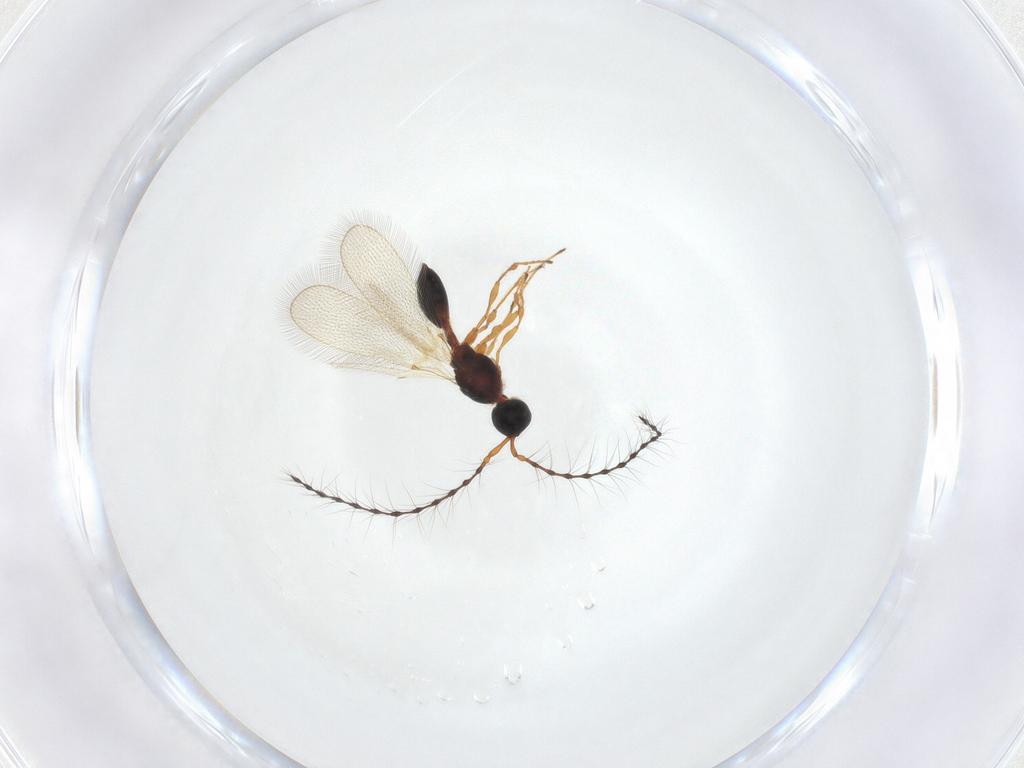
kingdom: Animalia
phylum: Arthropoda
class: Insecta
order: Hymenoptera
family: Diapriidae
